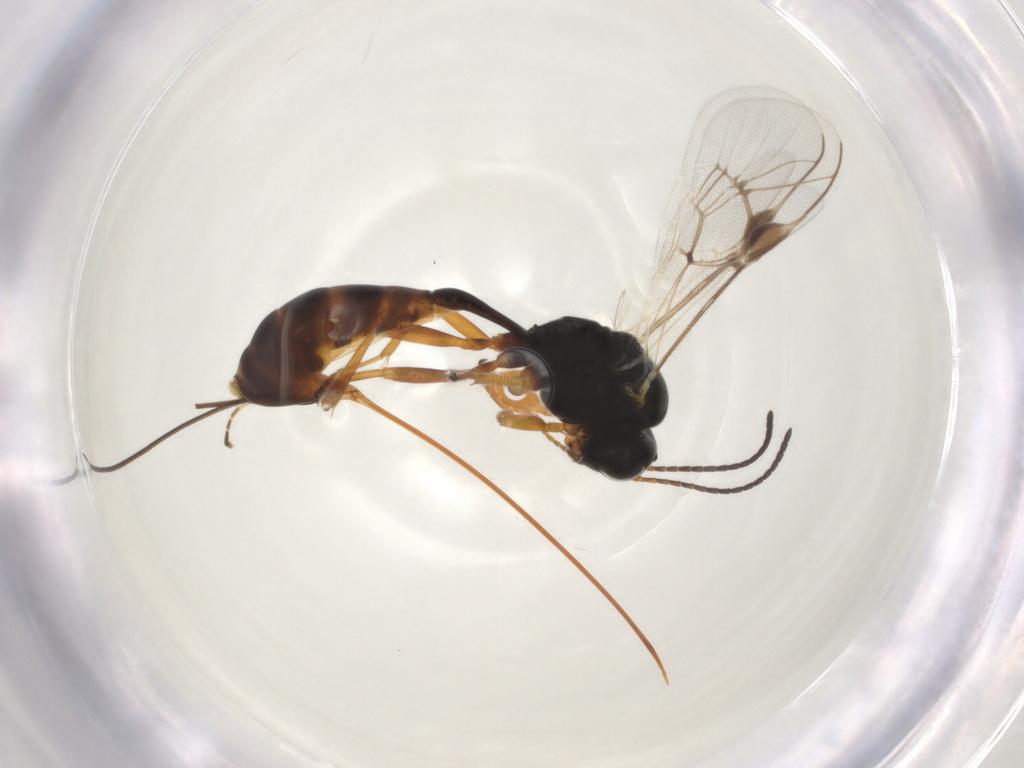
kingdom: Animalia
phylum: Arthropoda
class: Insecta
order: Hymenoptera
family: Ichneumonidae
